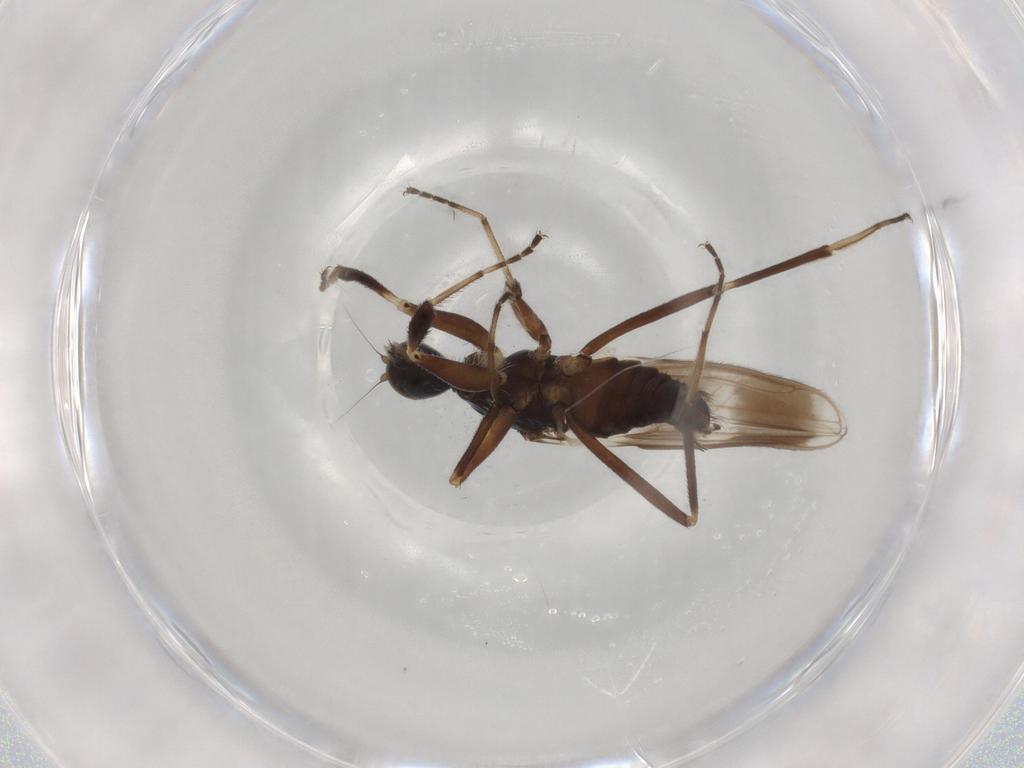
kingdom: Animalia
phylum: Arthropoda
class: Insecta
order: Diptera
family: Hybotidae
